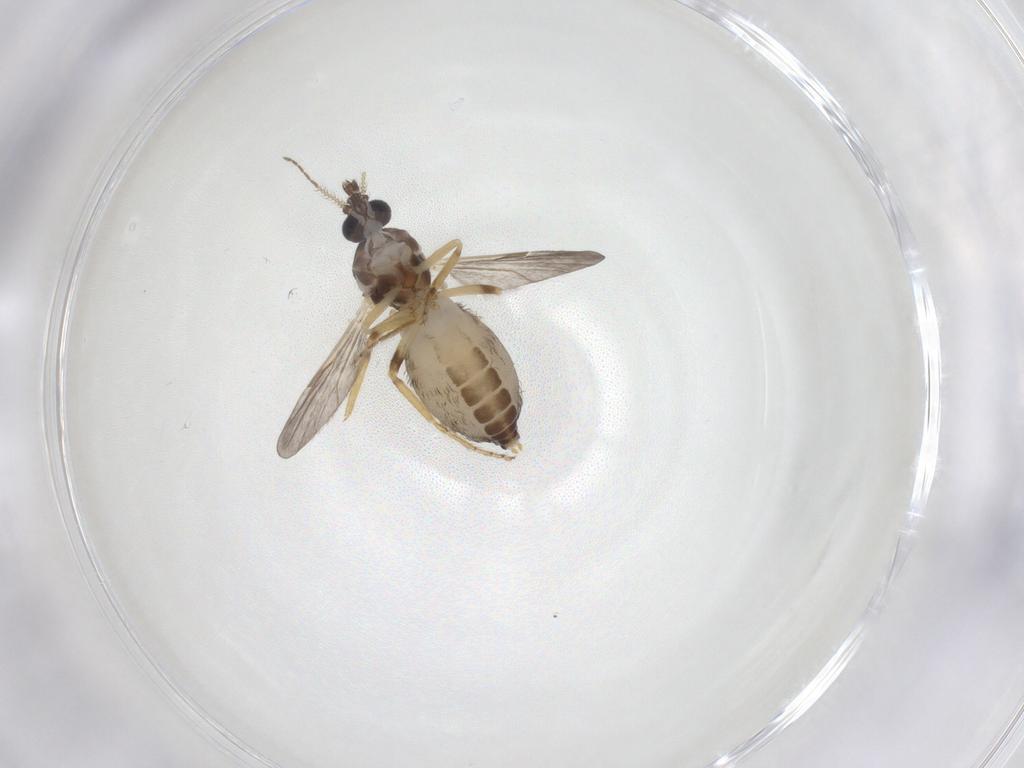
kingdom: Animalia
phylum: Arthropoda
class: Insecta
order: Diptera
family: Ceratopogonidae
